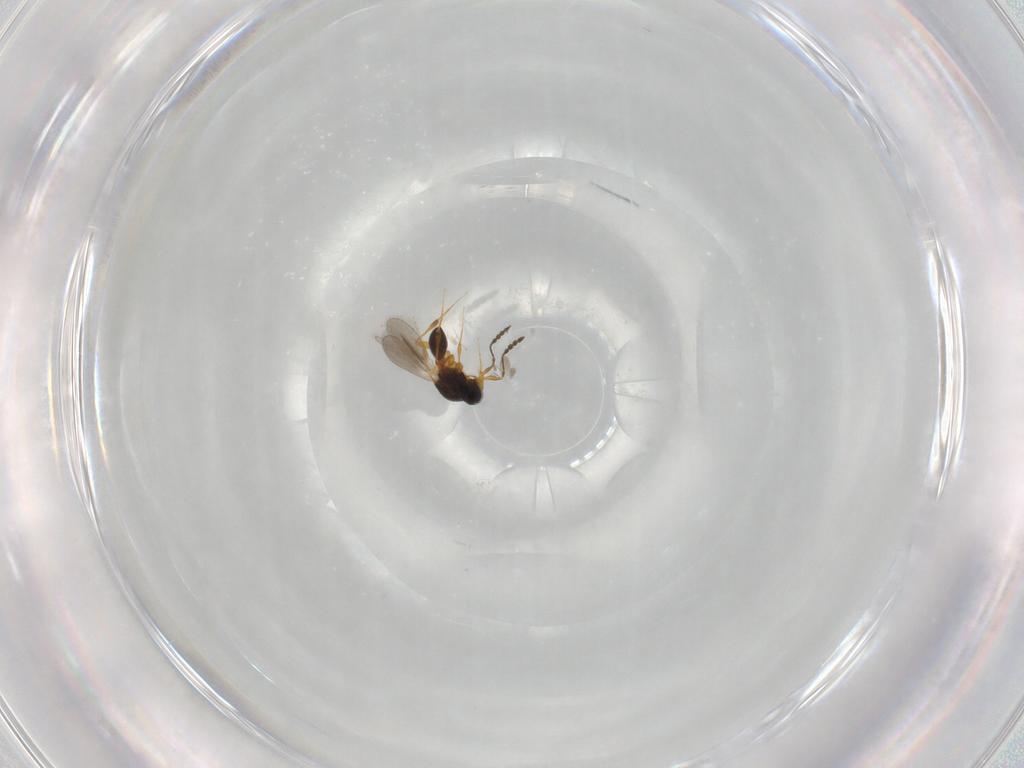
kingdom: Animalia
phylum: Arthropoda
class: Insecta
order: Hymenoptera
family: Platygastridae
